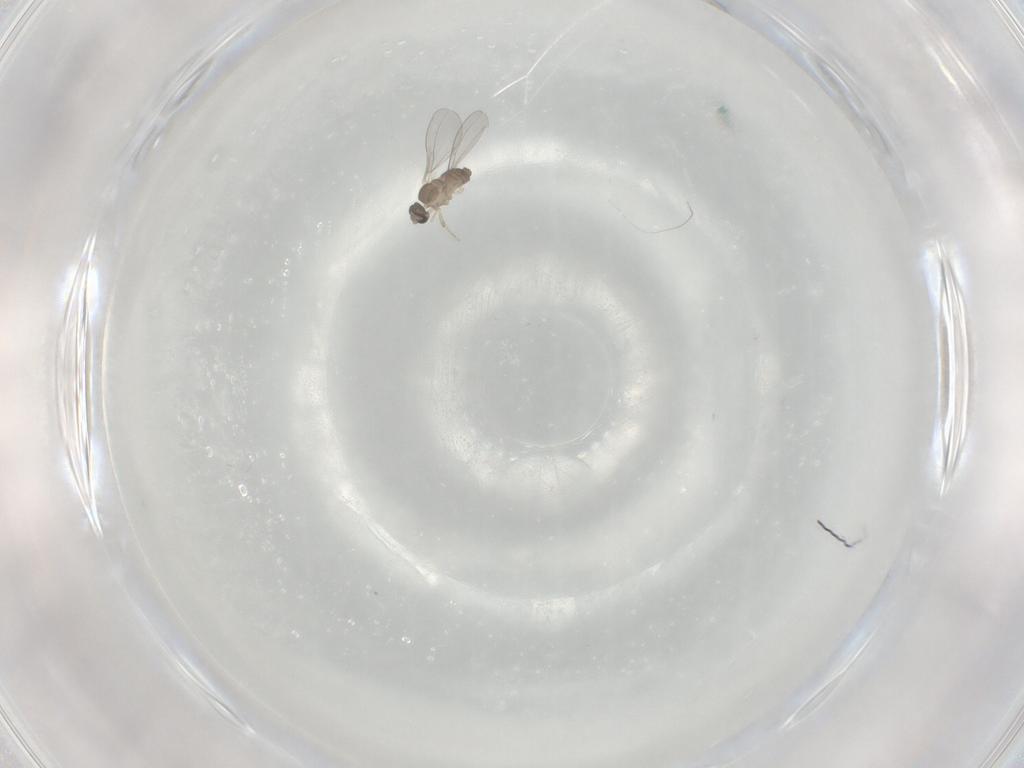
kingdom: Animalia
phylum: Arthropoda
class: Insecta
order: Diptera
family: Cecidomyiidae
